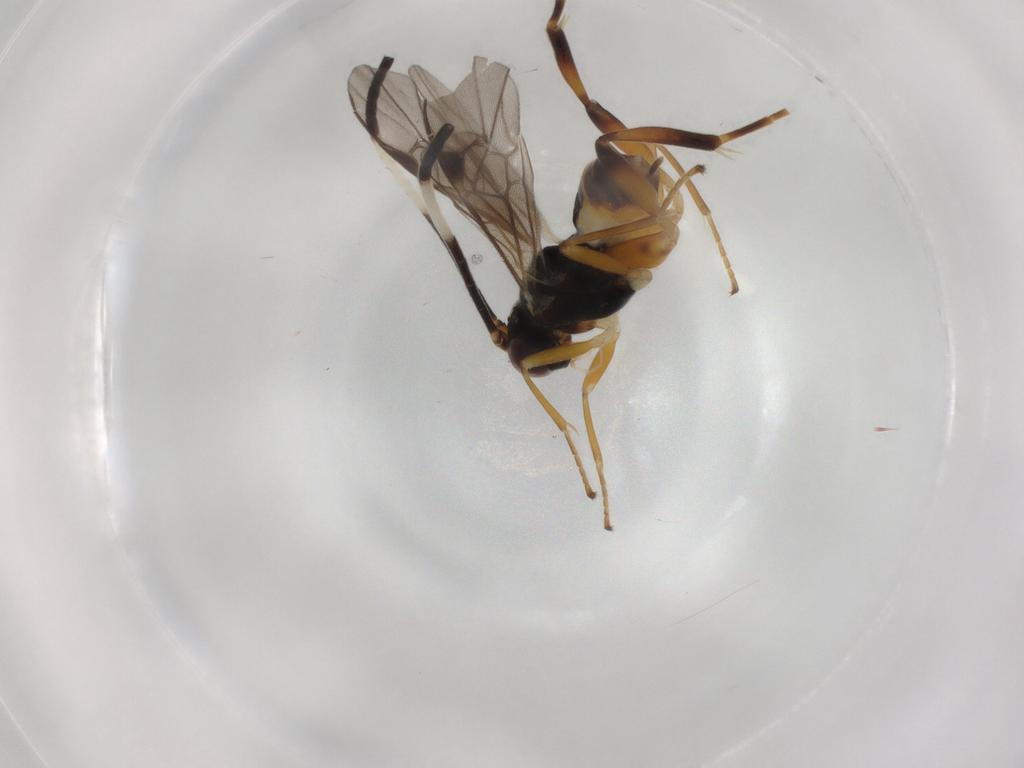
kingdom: Animalia
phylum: Arthropoda
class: Insecta
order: Hymenoptera
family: Braconidae
